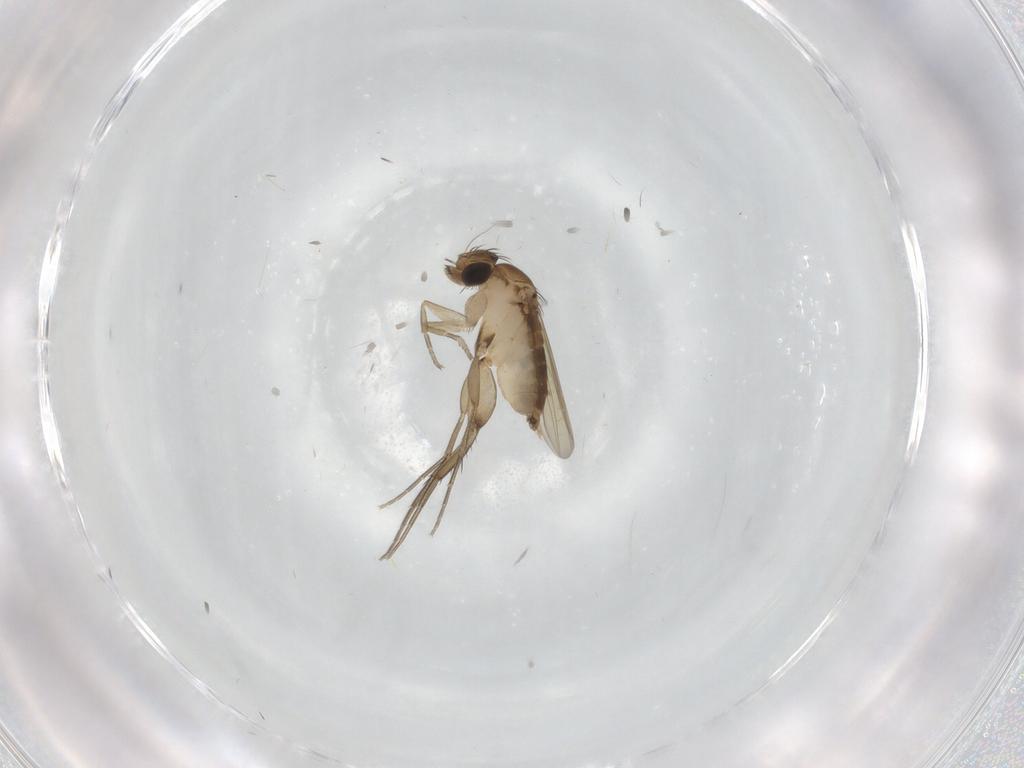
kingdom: Animalia
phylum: Arthropoda
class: Insecta
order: Diptera
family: Phoridae
